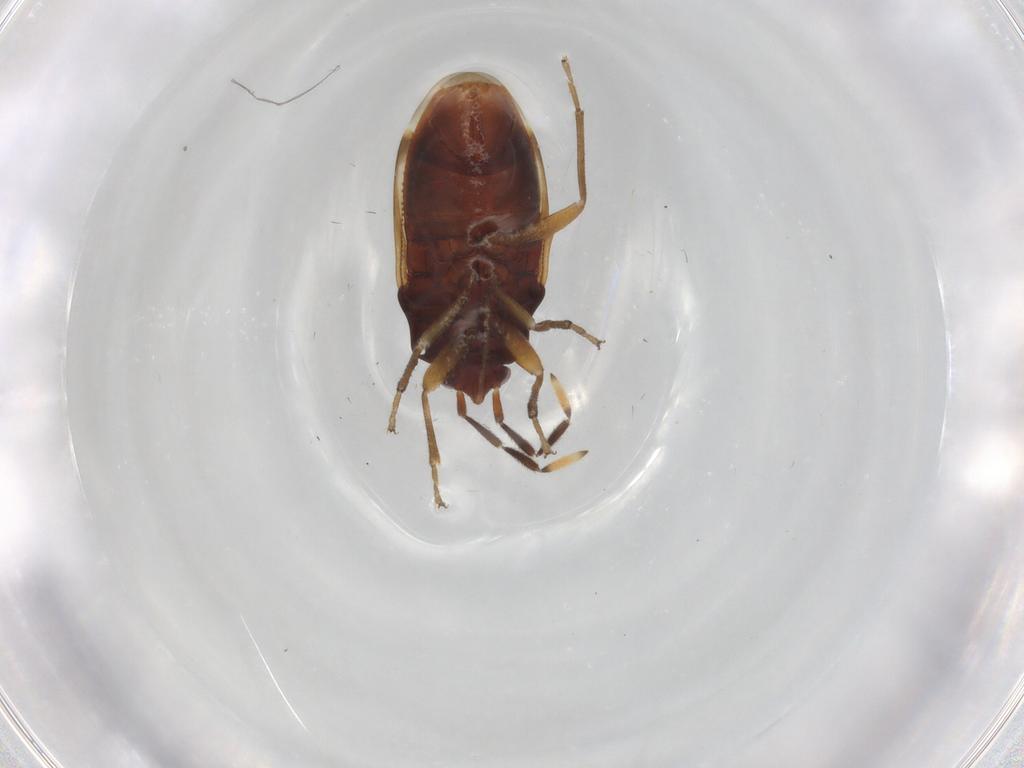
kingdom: Animalia
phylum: Arthropoda
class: Insecta
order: Hemiptera
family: Rhyparochromidae
